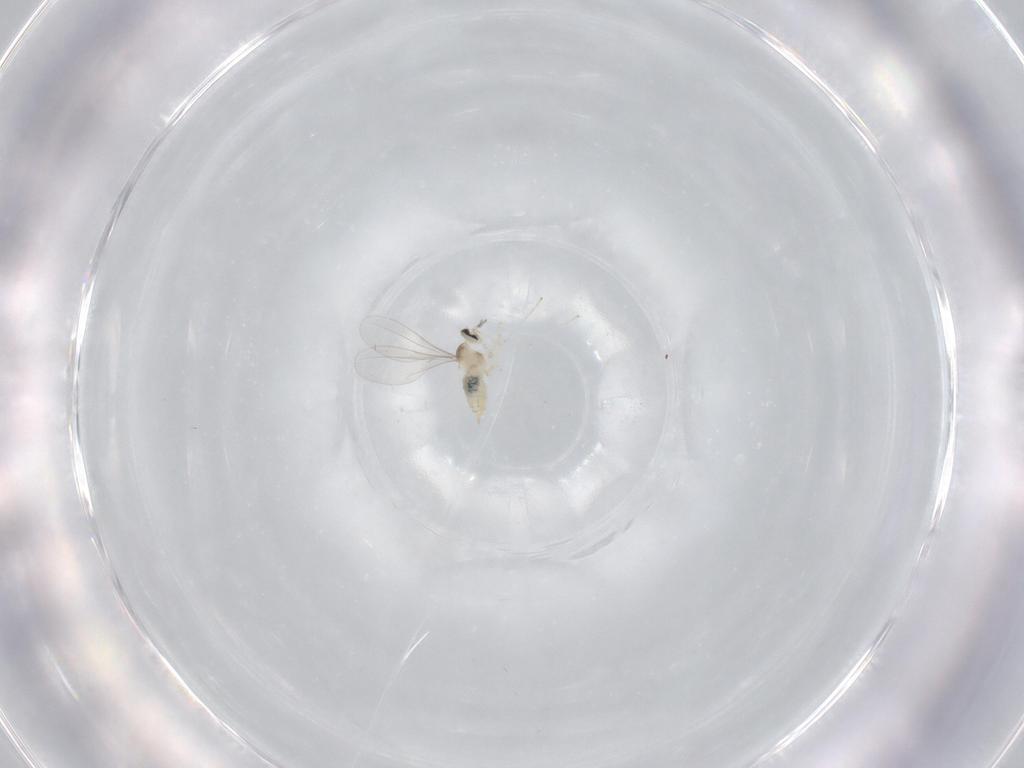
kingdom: Animalia
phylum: Arthropoda
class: Insecta
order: Diptera
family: Cecidomyiidae
